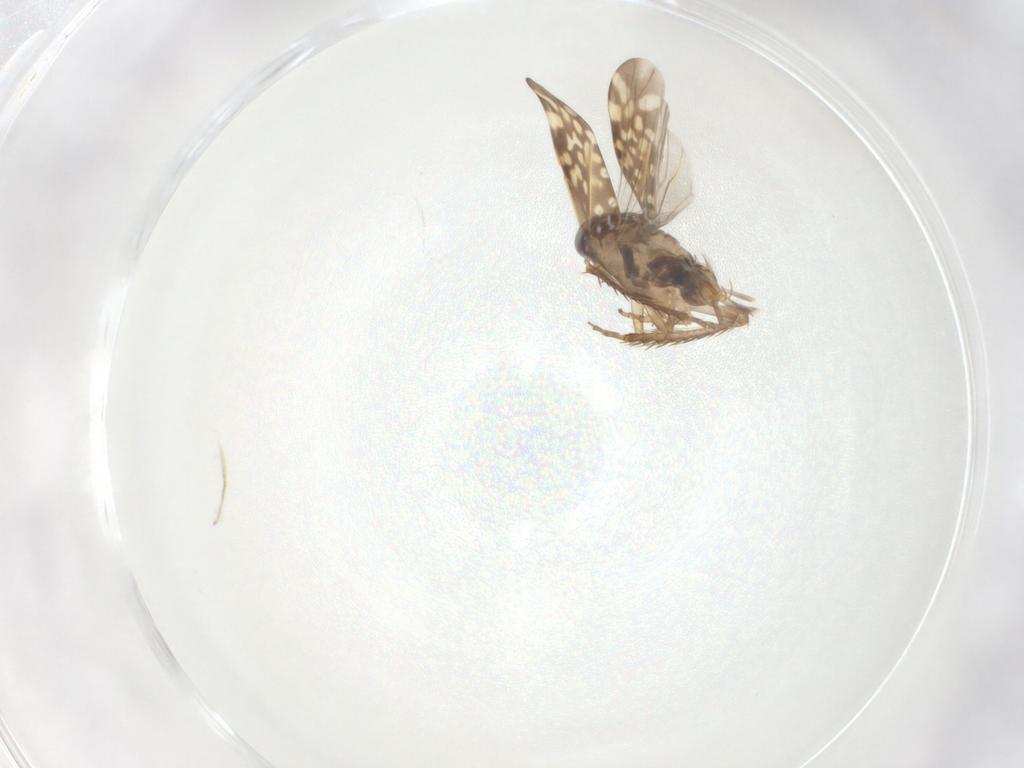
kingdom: Animalia
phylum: Arthropoda
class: Insecta
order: Hemiptera
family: Cicadellidae
